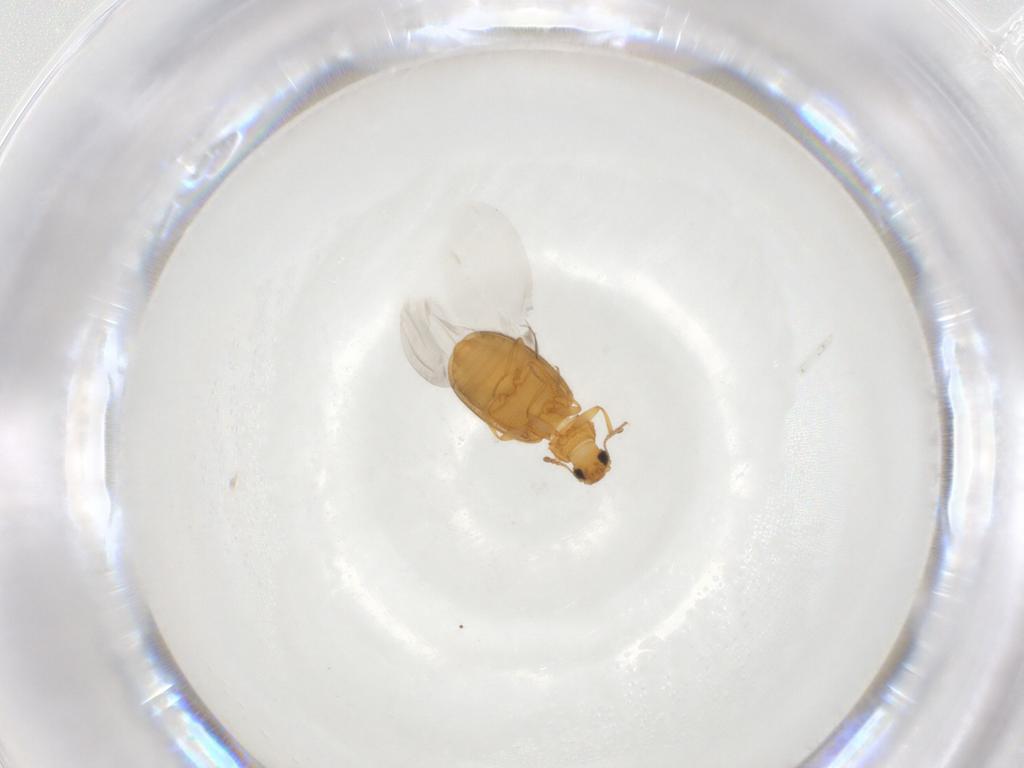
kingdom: Animalia
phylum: Arthropoda
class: Insecta
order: Coleoptera
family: Latridiidae
